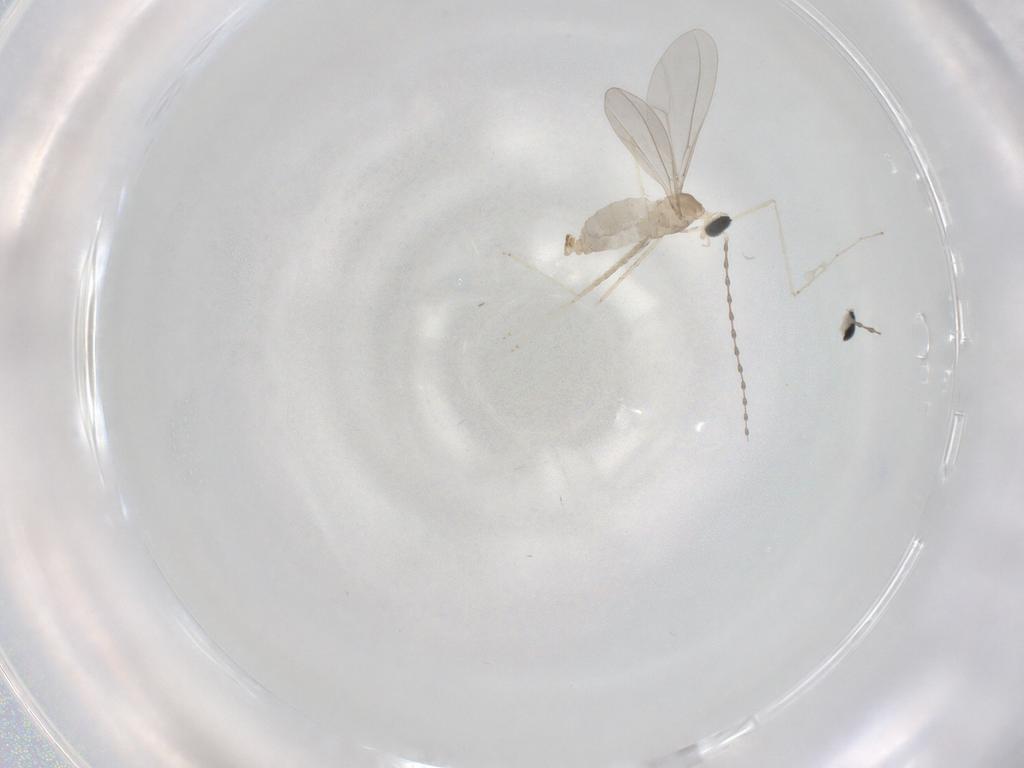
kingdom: Animalia
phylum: Arthropoda
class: Insecta
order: Diptera
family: Cecidomyiidae
